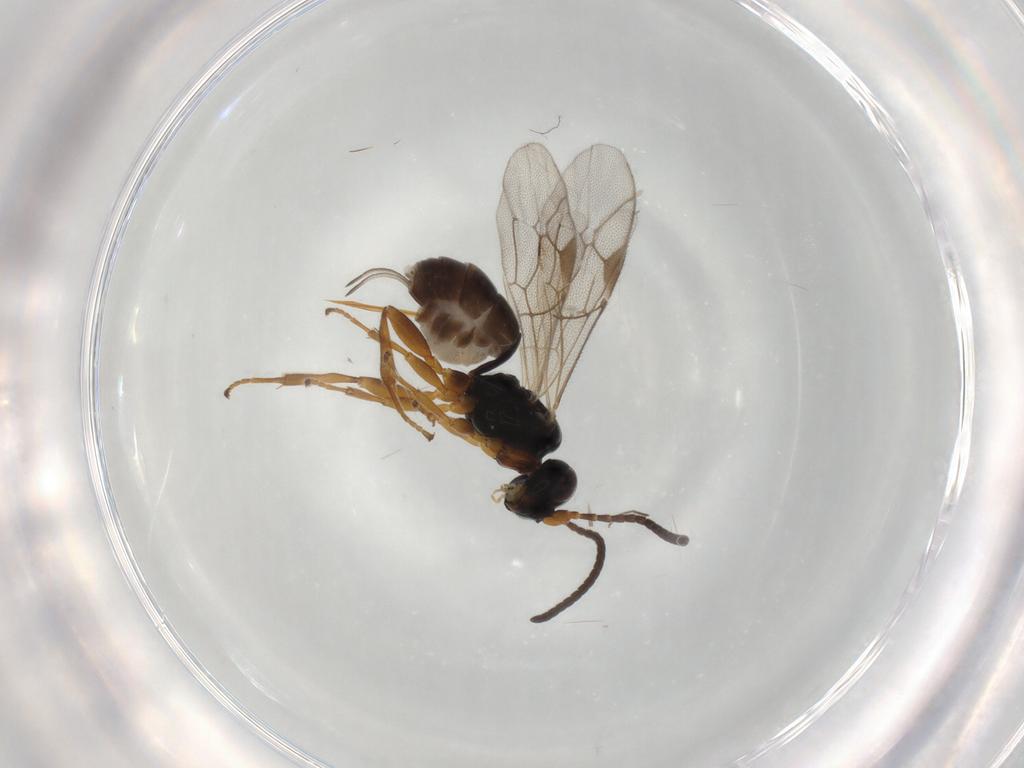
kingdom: Animalia
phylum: Arthropoda
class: Insecta
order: Hymenoptera
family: Ichneumonidae
